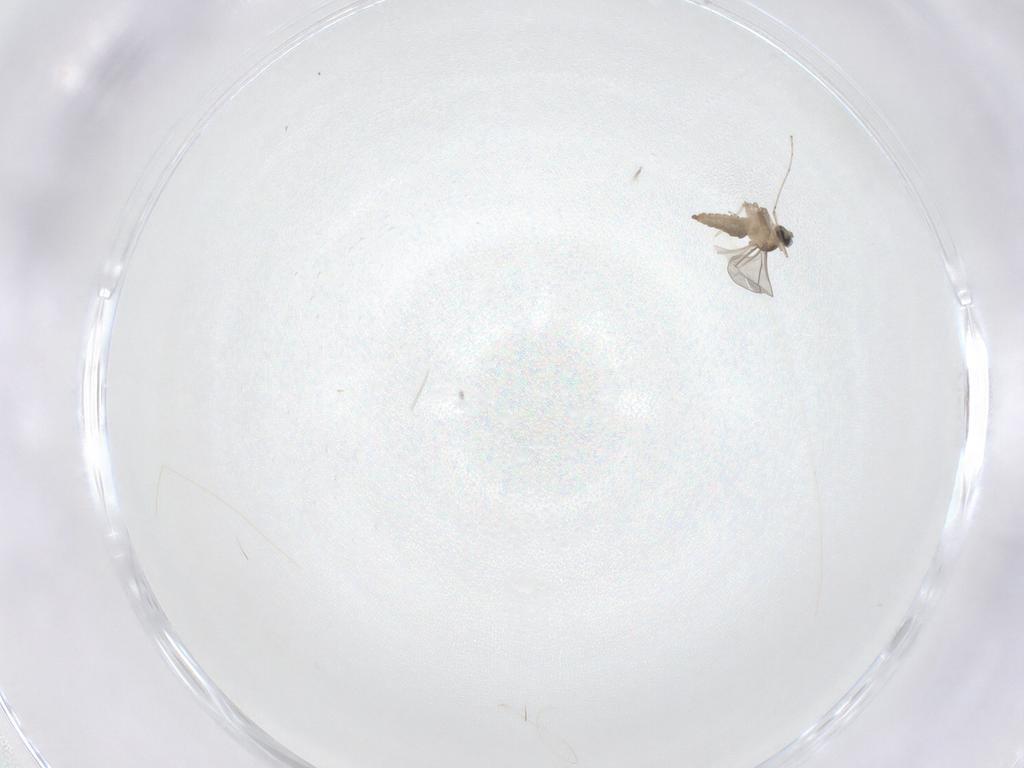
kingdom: Animalia
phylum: Arthropoda
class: Insecta
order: Diptera
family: Cecidomyiidae
